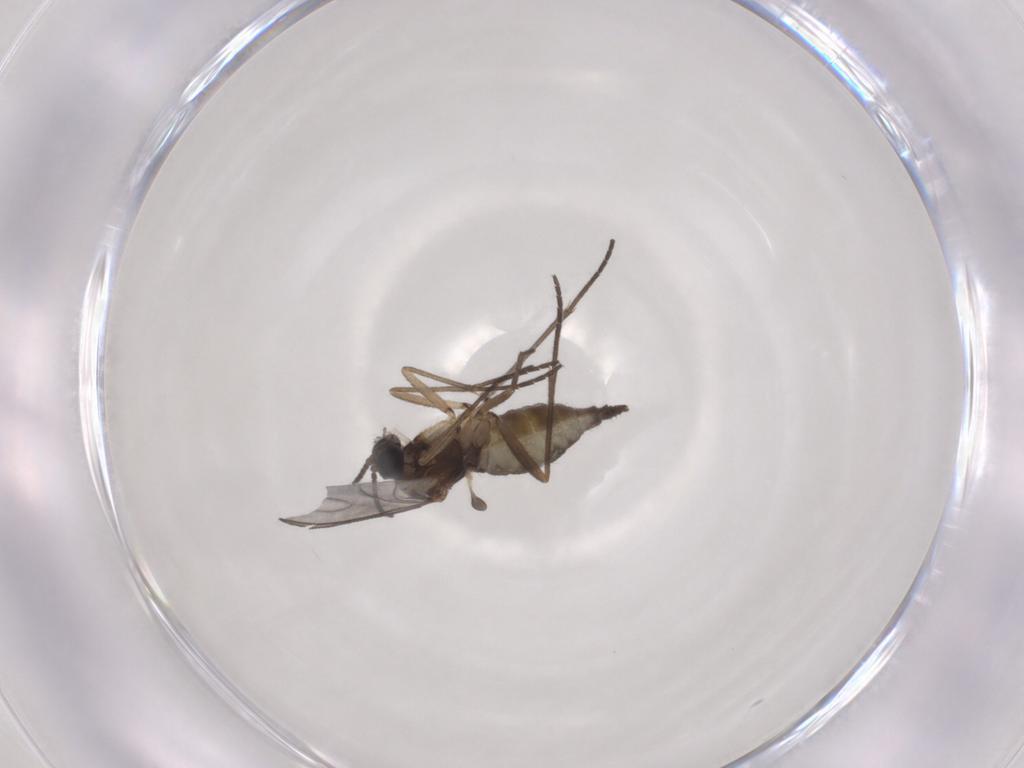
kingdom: Animalia
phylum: Arthropoda
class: Insecta
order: Diptera
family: Sciaridae
